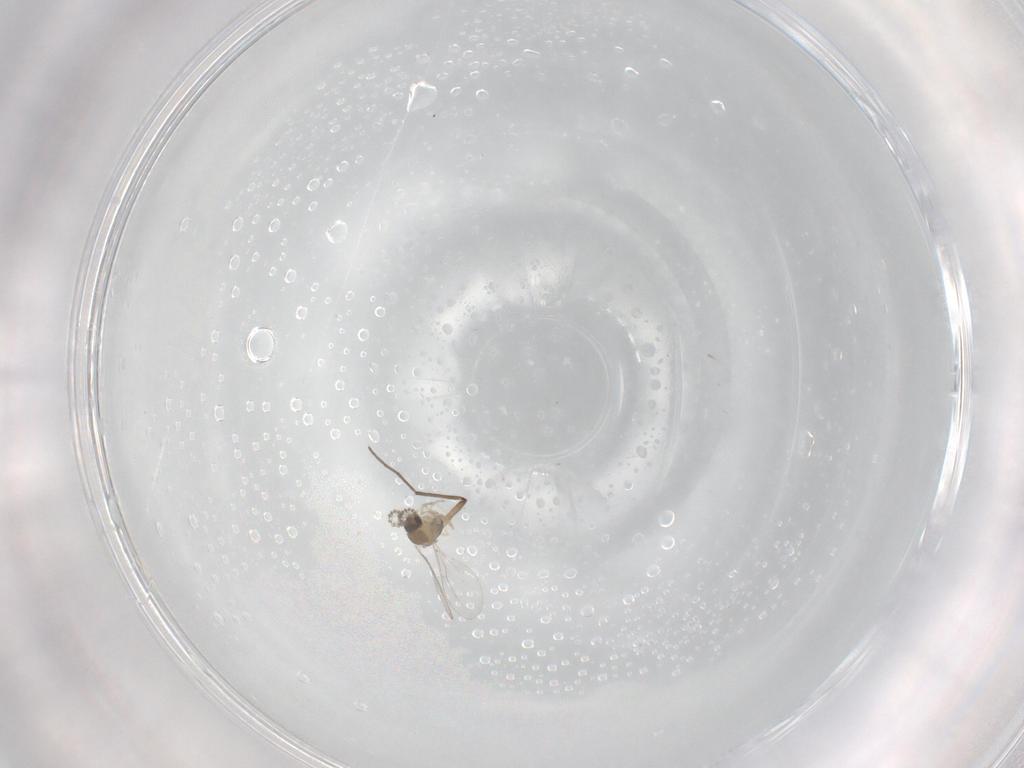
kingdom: Animalia
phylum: Arthropoda
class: Insecta
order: Diptera
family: Cecidomyiidae
